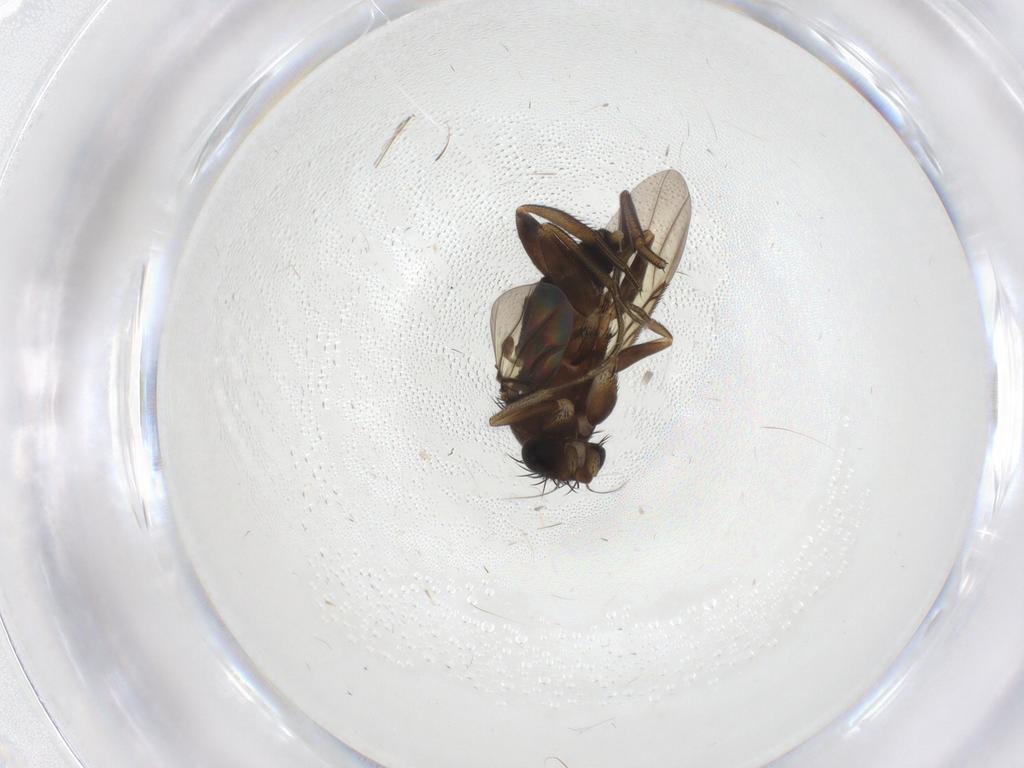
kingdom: Animalia
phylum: Arthropoda
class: Insecta
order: Diptera
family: Phoridae
